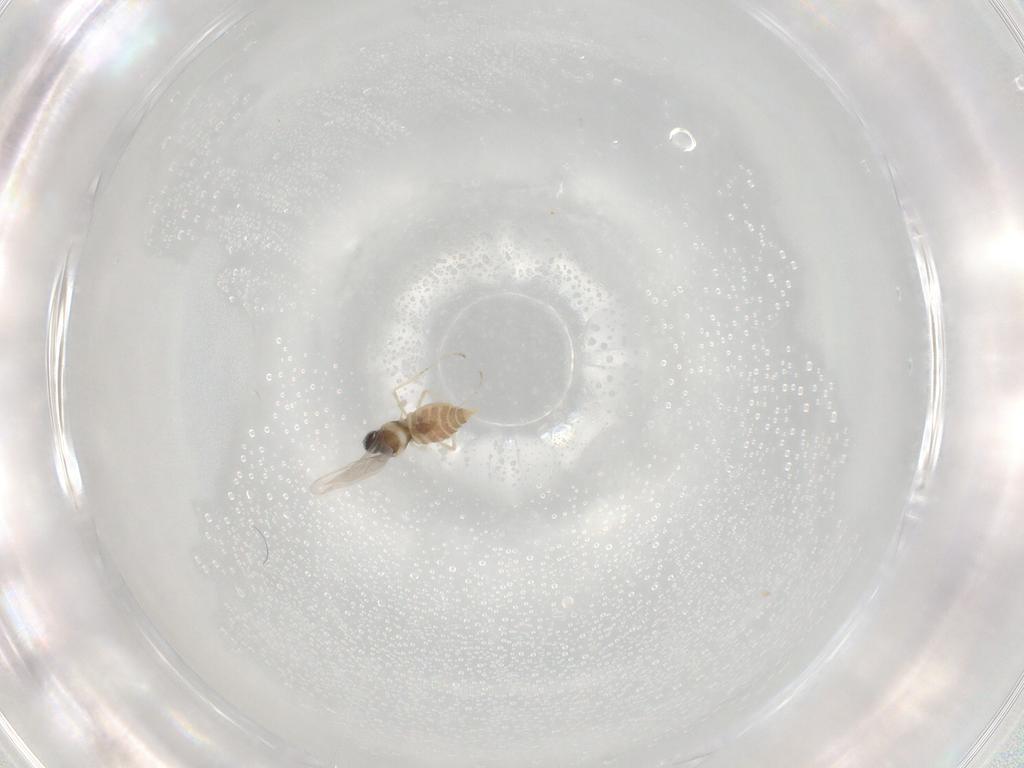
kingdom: Animalia
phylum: Arthropoda
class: Insecta
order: Diptera
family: Cecidomyiidae
